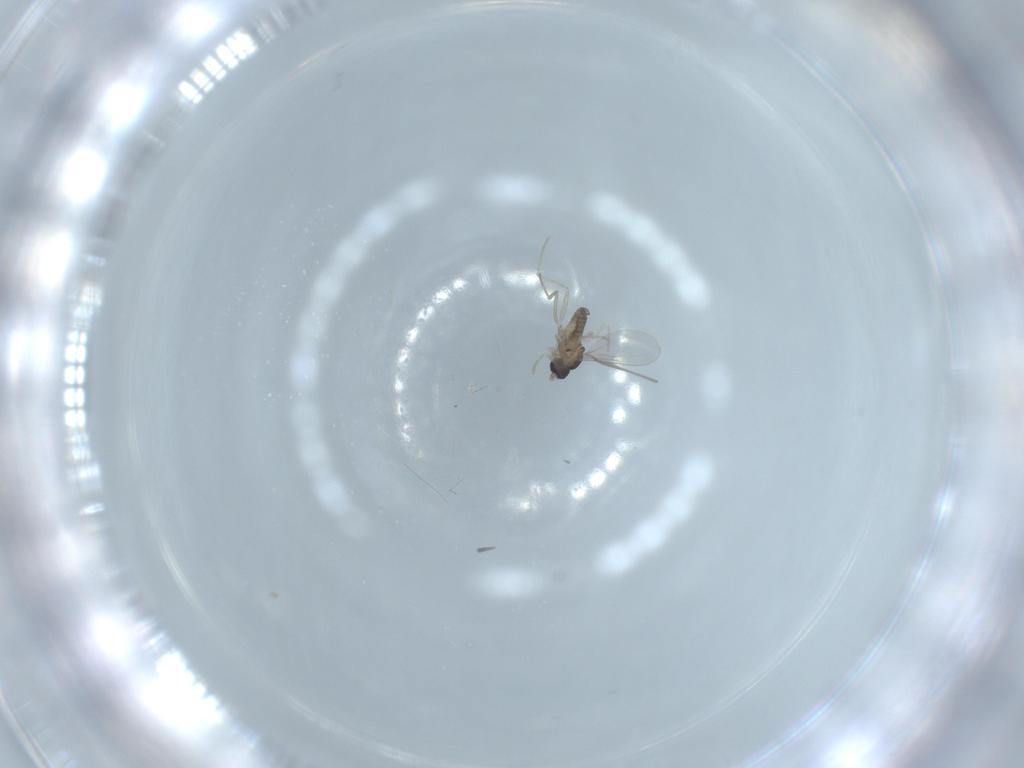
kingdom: Animalia
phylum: Arthropoda
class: Insecta
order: Diptera
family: Cecidomyiidae
